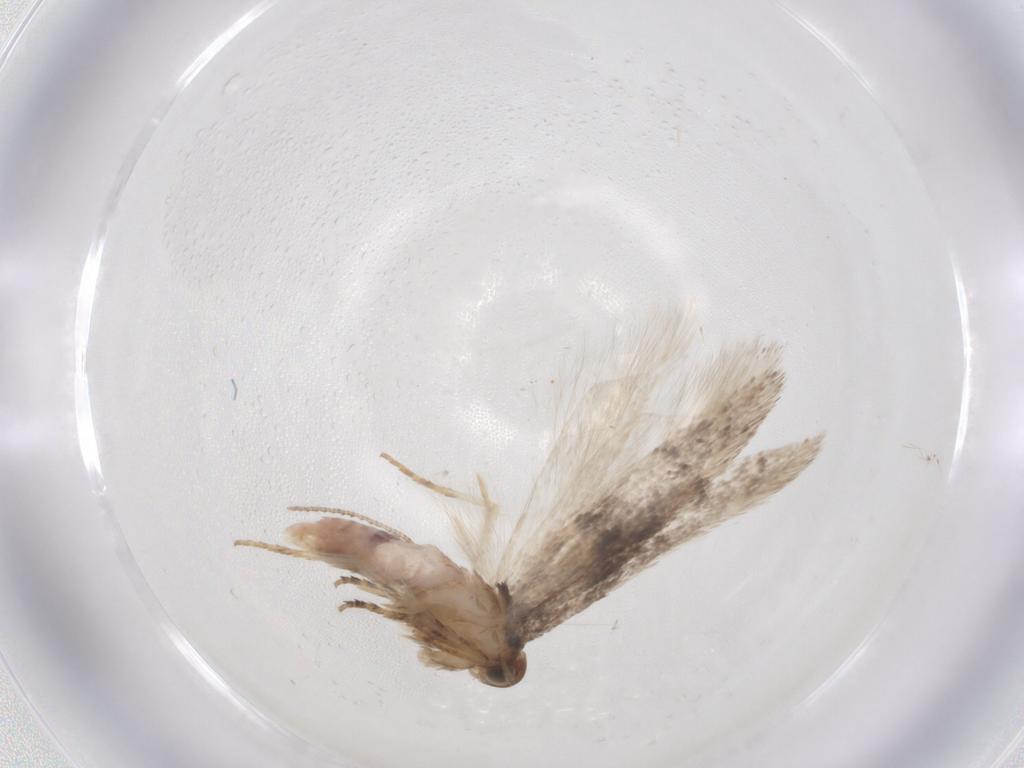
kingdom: Animalia
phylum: Arthropoda
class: Insecta
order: Lepidoptera
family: Gelechiidae
